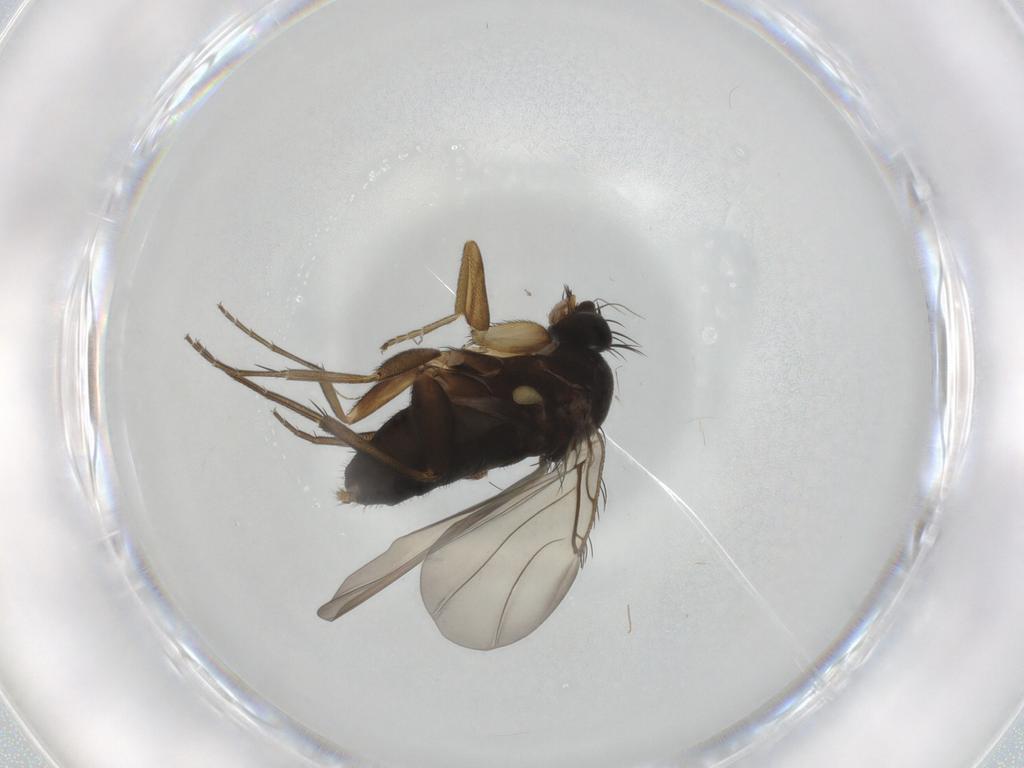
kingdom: Animalia
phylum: Arthropoda
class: Insecta
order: Diptera
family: Phoridae
